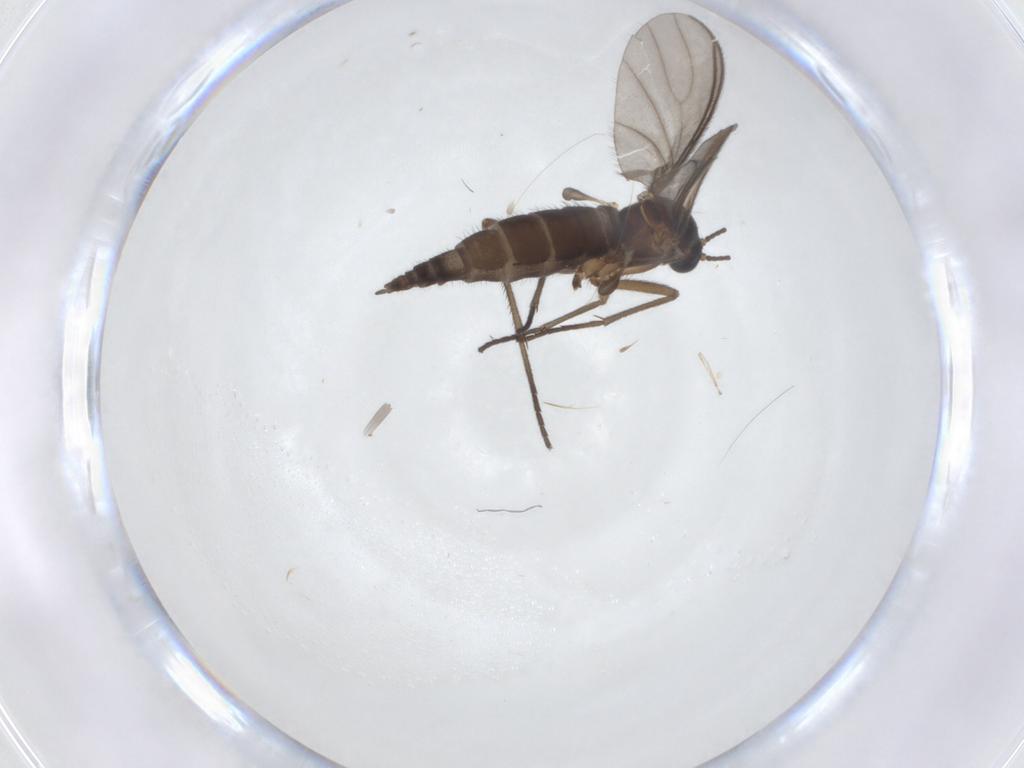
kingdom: Animalia
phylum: Arthropoda
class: Insecta
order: Diptera
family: Sciaridae
